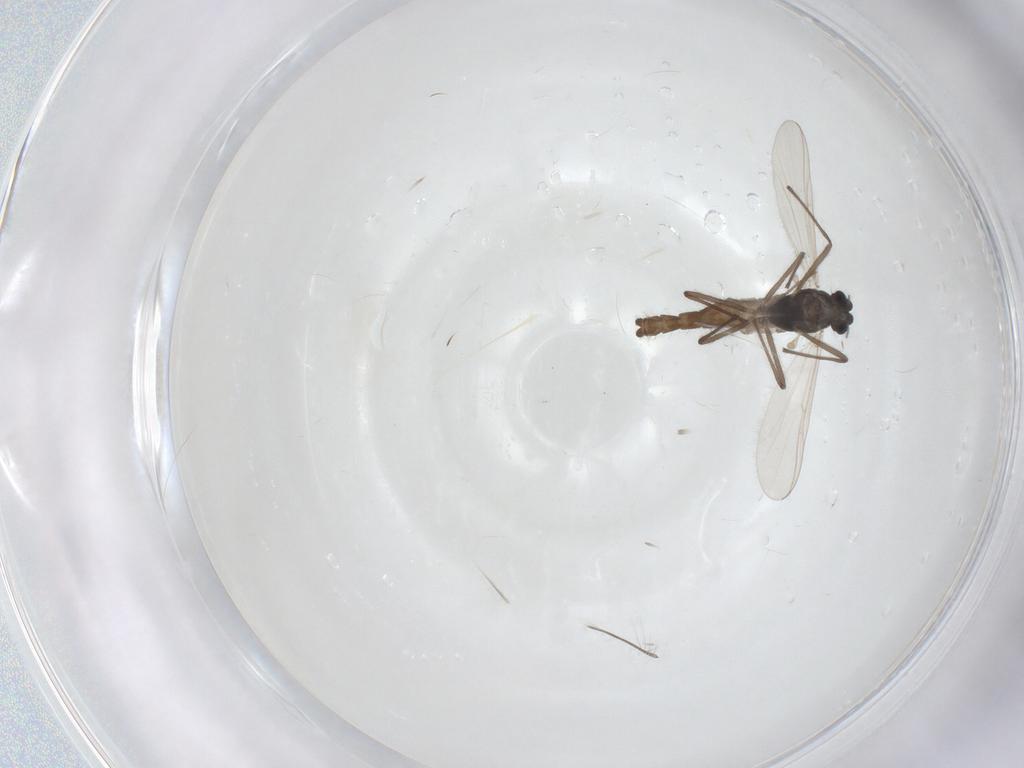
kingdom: Animalia
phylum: Arthropoda
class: Insecta
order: Diptera
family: Chironomidae
